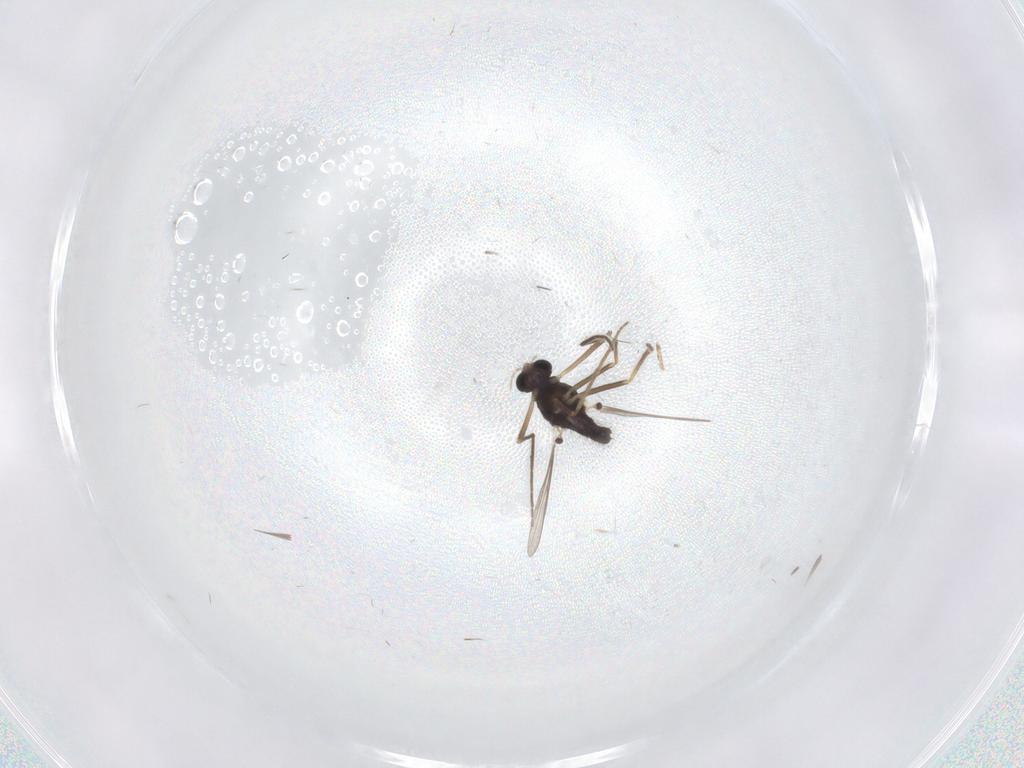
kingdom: Animalia
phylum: Arthropoda
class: Insecta
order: Diptera
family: Chironomidae
